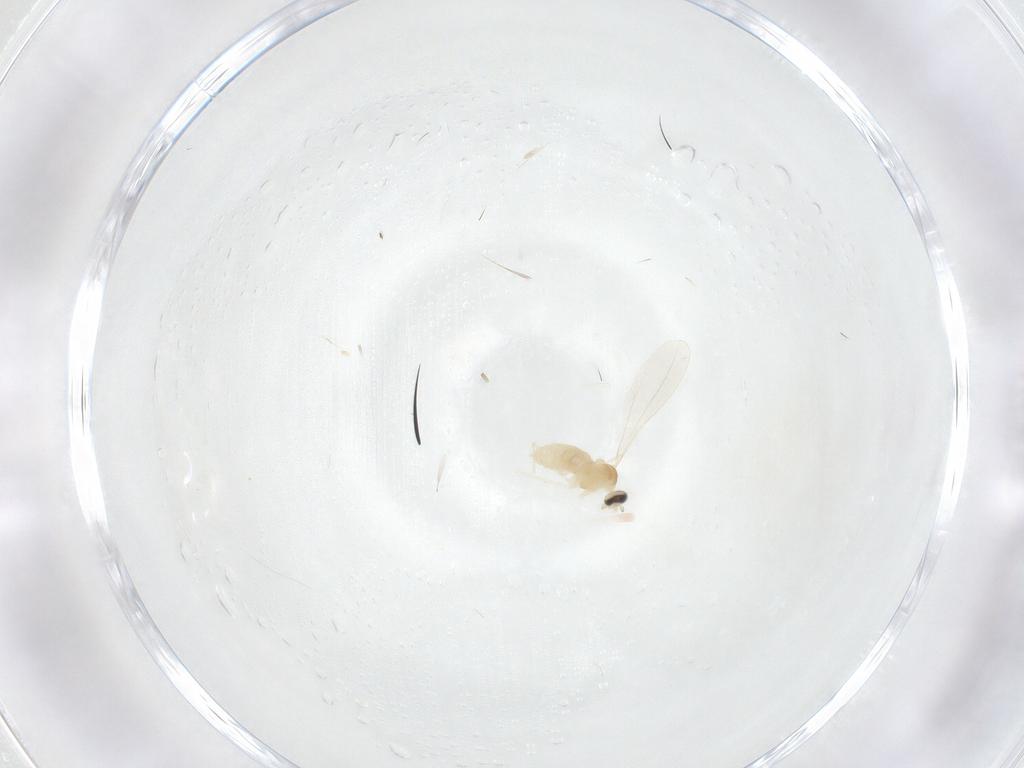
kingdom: Animalia
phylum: Arthropoda
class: Insecta
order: Diptera
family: Cecidomyiidae
